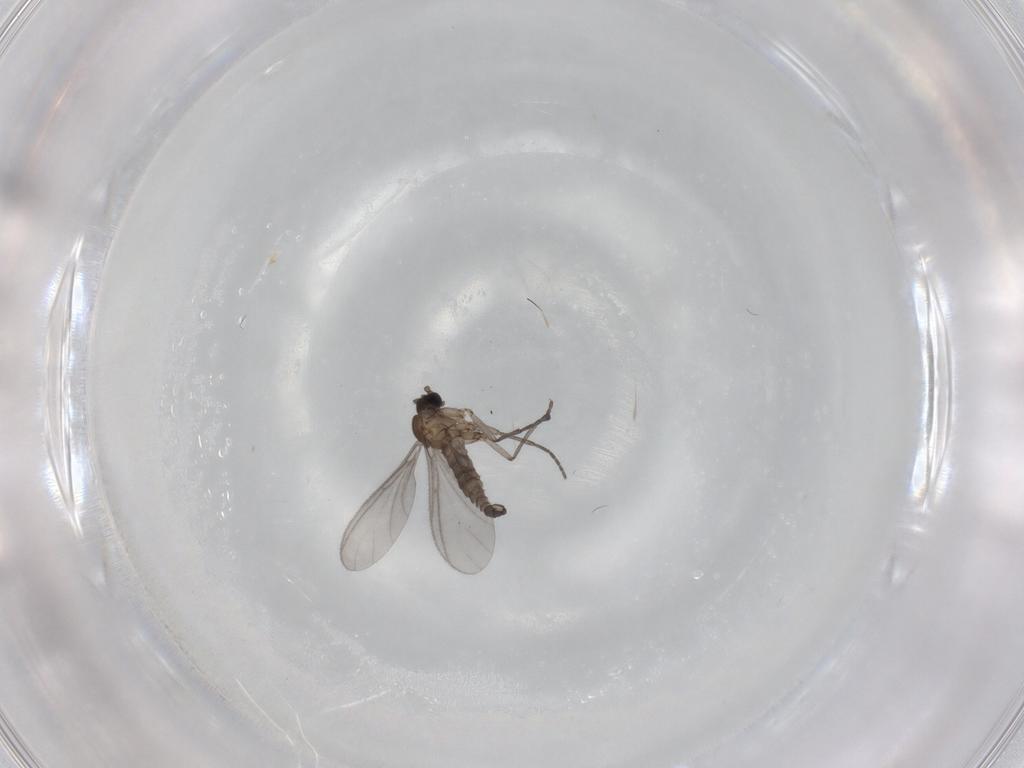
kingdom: Animalia
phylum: Arthropoda
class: Insecta
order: Diptera
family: Sciaridae
